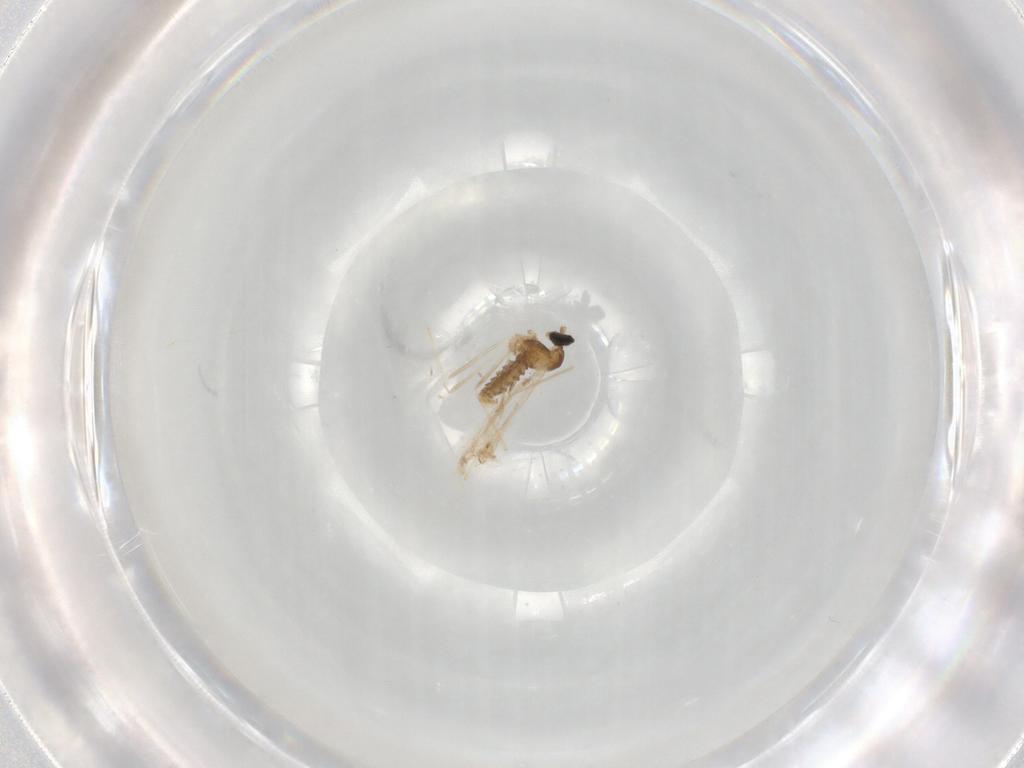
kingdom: Animalia
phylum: Arthropoda
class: Insecta
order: Diptera
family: Cecidomyiidae
